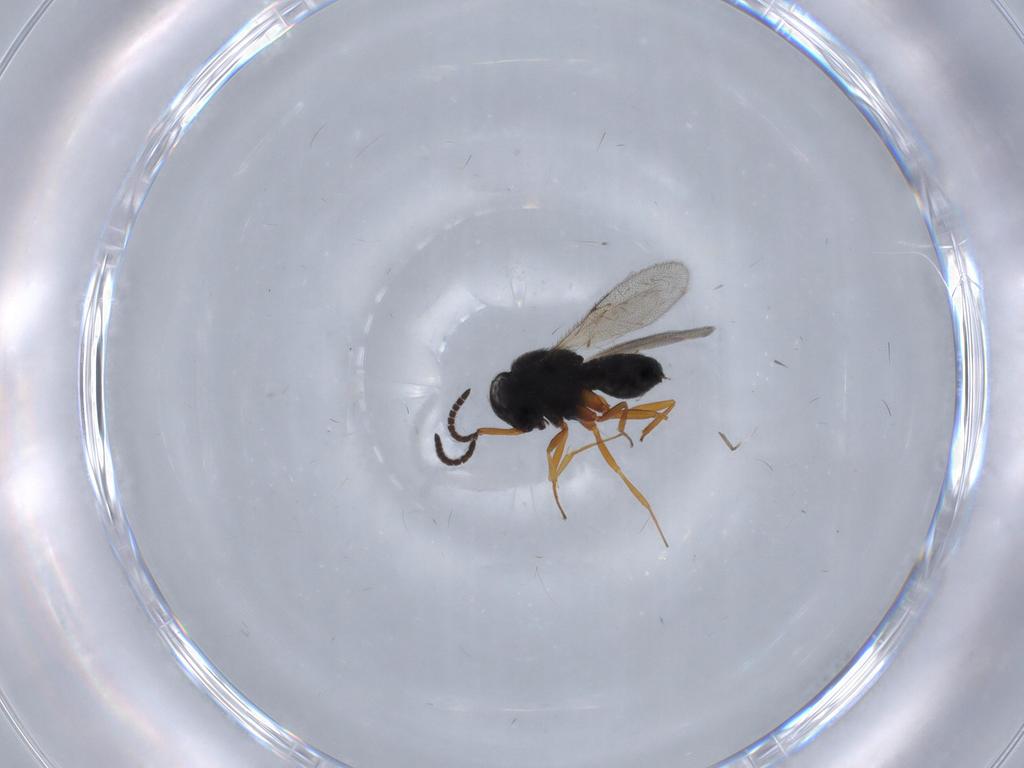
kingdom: Animalia
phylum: Arthropoda
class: Insecta
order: Hymenoptera
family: Scelionidae
